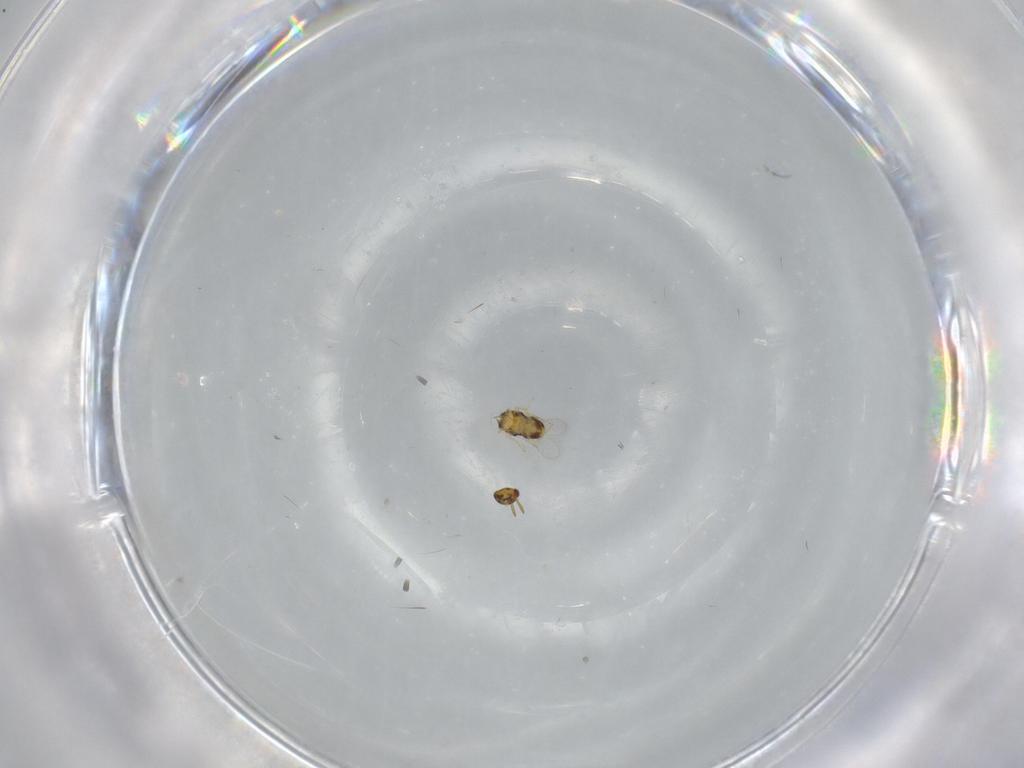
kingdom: Animalia
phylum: Arthropoda
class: Insecta
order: Hymenoptera
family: Aphelinidae
